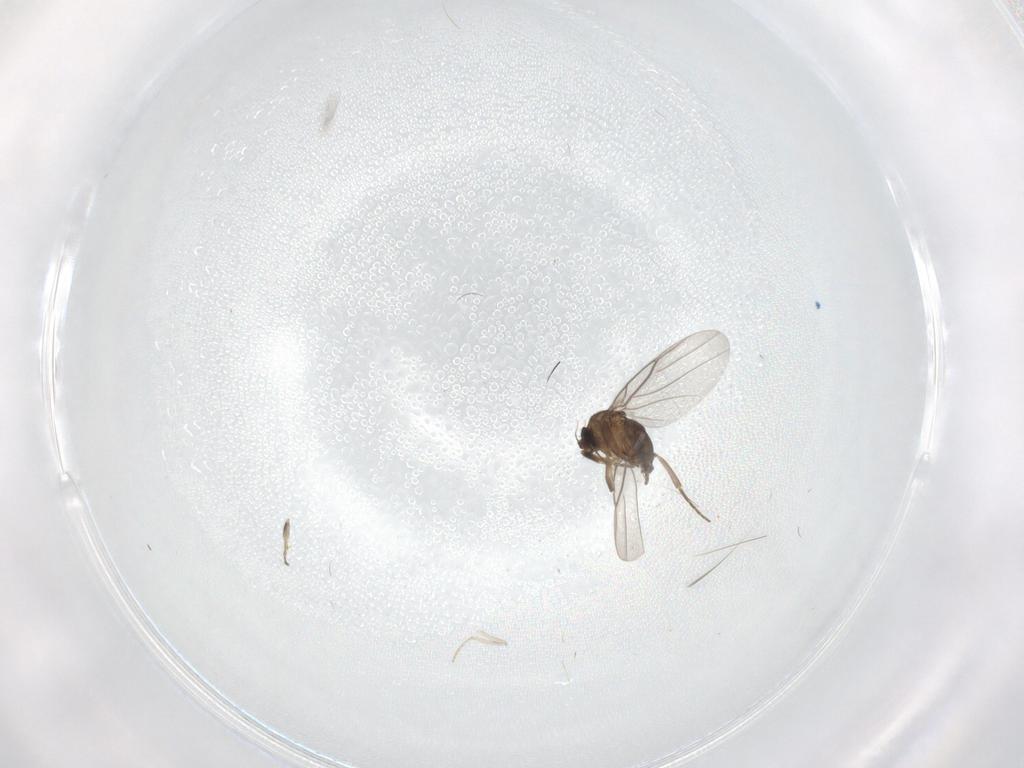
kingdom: Animalia
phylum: Arthropoda
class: Insecta
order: Diptera
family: Cecidomyiidae
